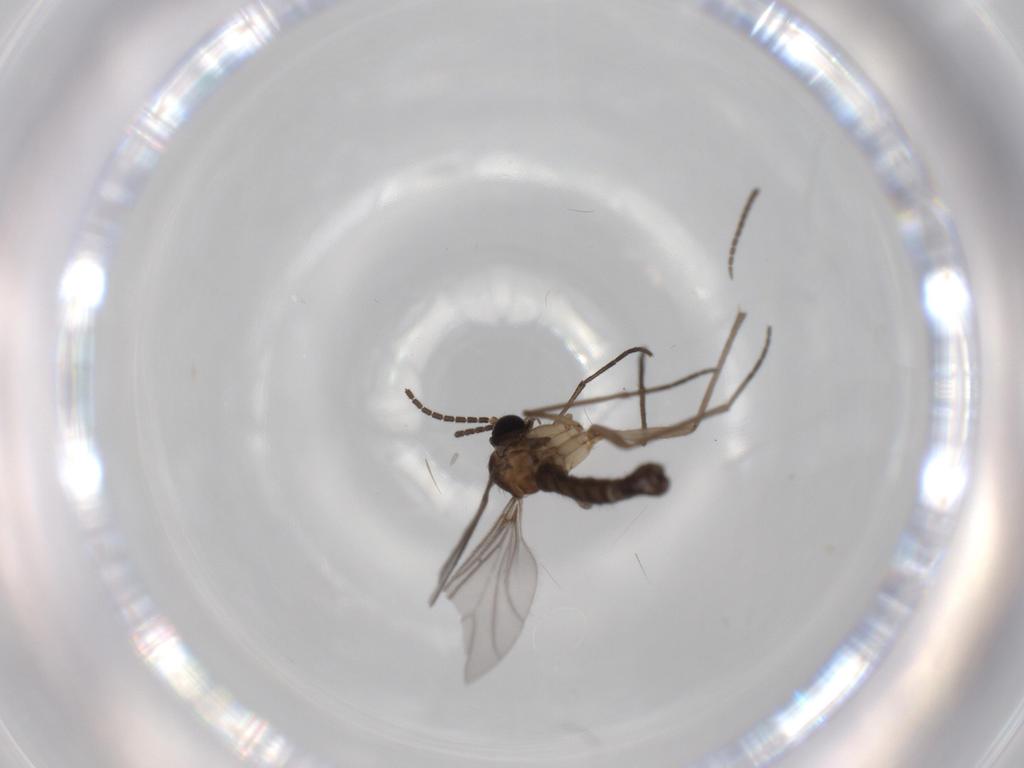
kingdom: Animalia
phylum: Arthropoda
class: Insecta
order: Diptera
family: Sciaridae
